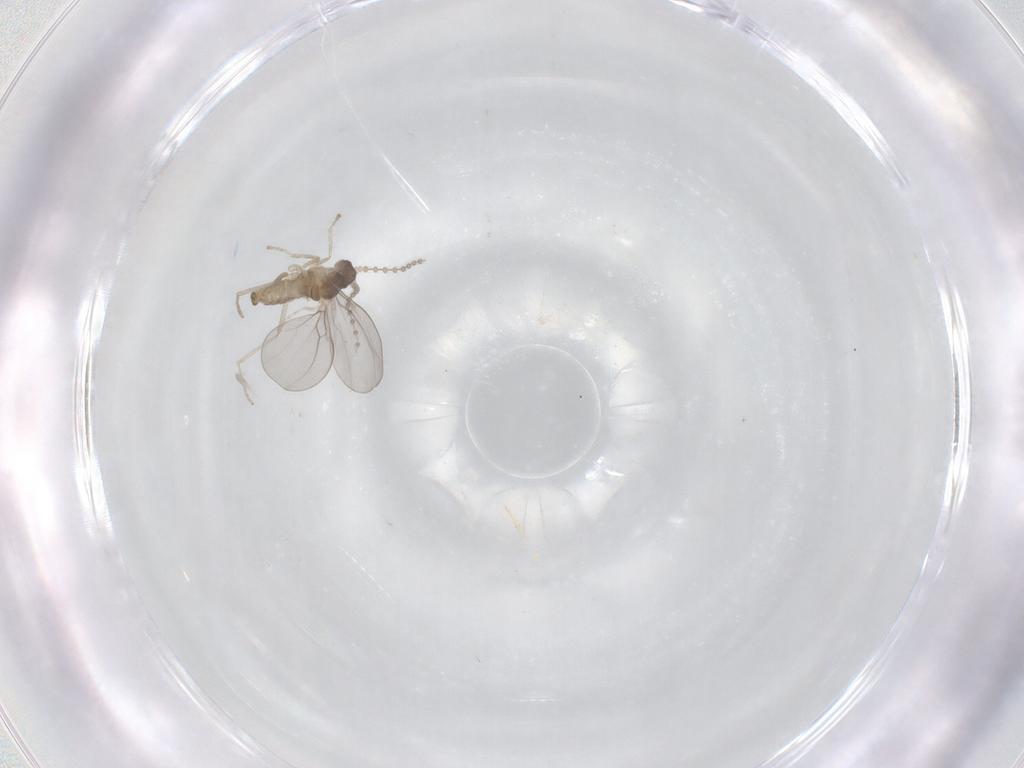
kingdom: Animalia
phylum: Arthropoda
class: Insecta
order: Diptera
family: Cecidomyiidae
